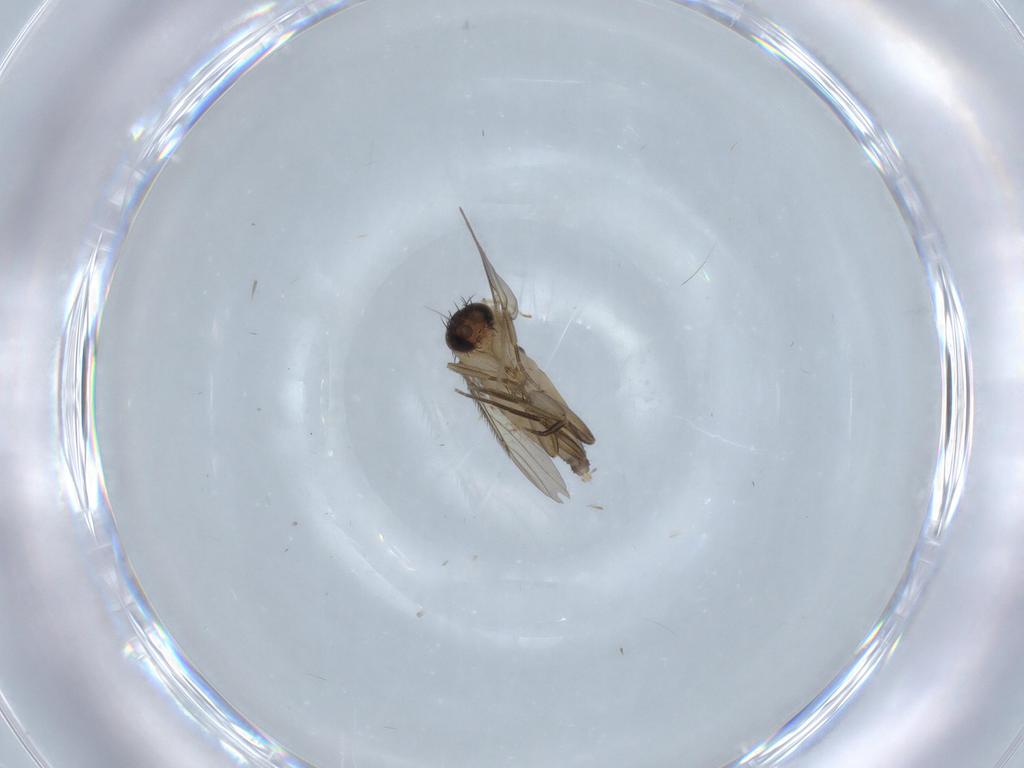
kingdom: Animalia
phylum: Arthropoda
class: Insecta
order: Diptera
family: Phoridae
